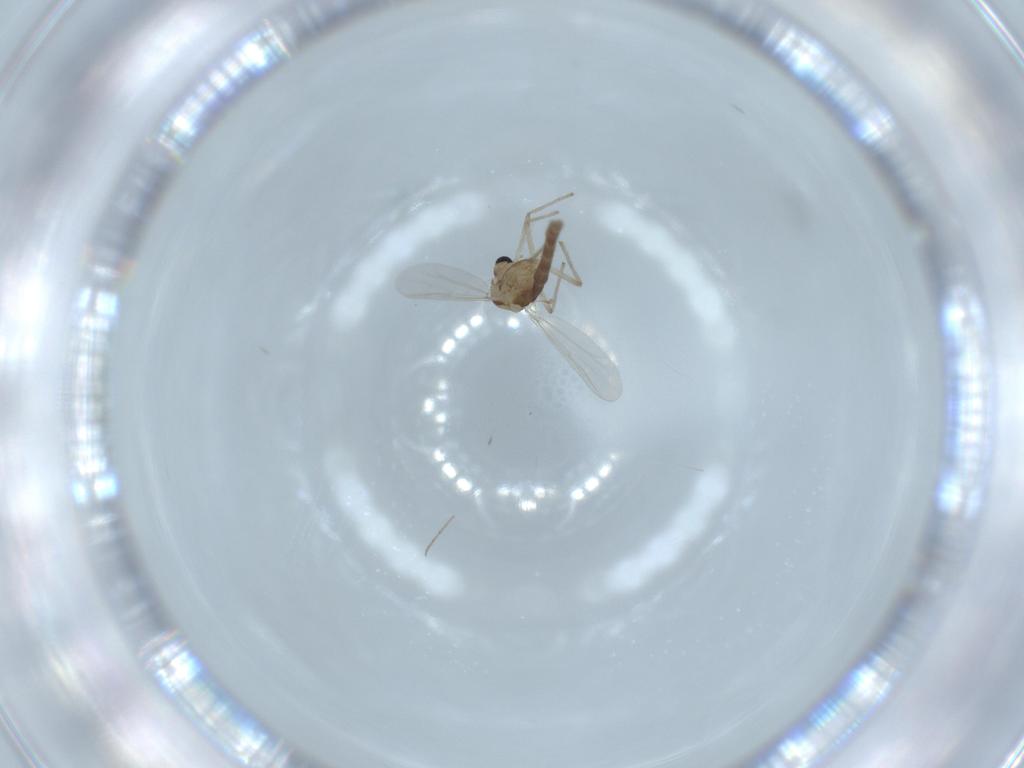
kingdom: Animalia
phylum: Arthropoda
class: Insecta
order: Diptera
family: Chironomidae
